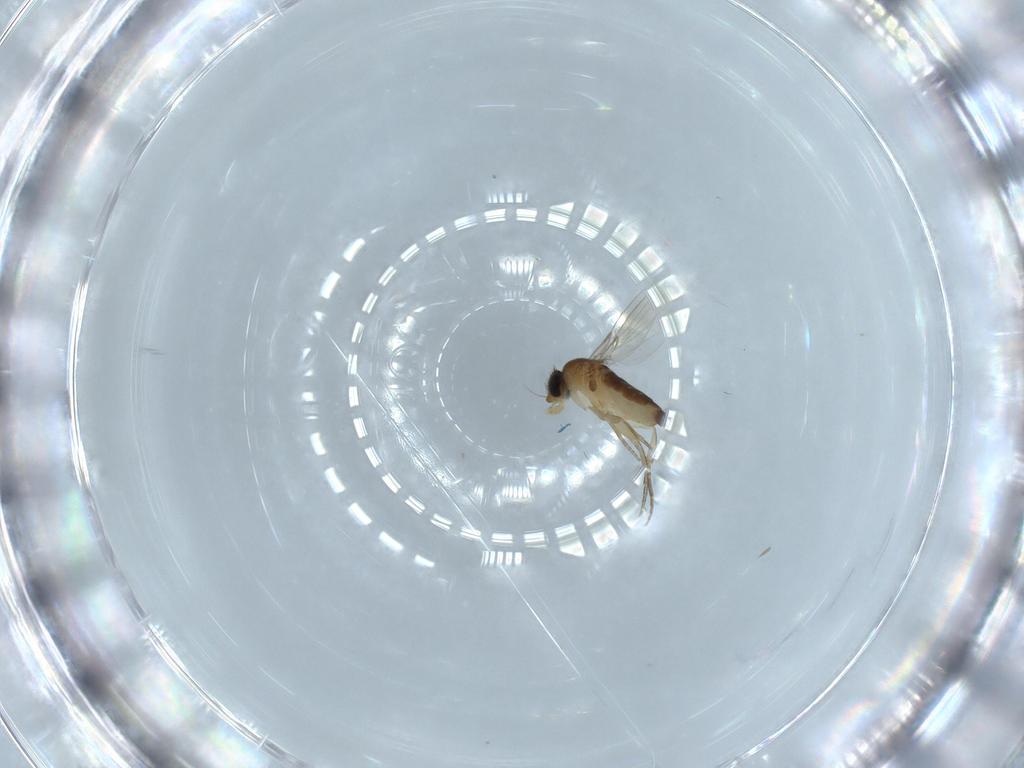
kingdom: Animalia
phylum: Arthropoda
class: Insecta
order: Diptera
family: Phoridae
